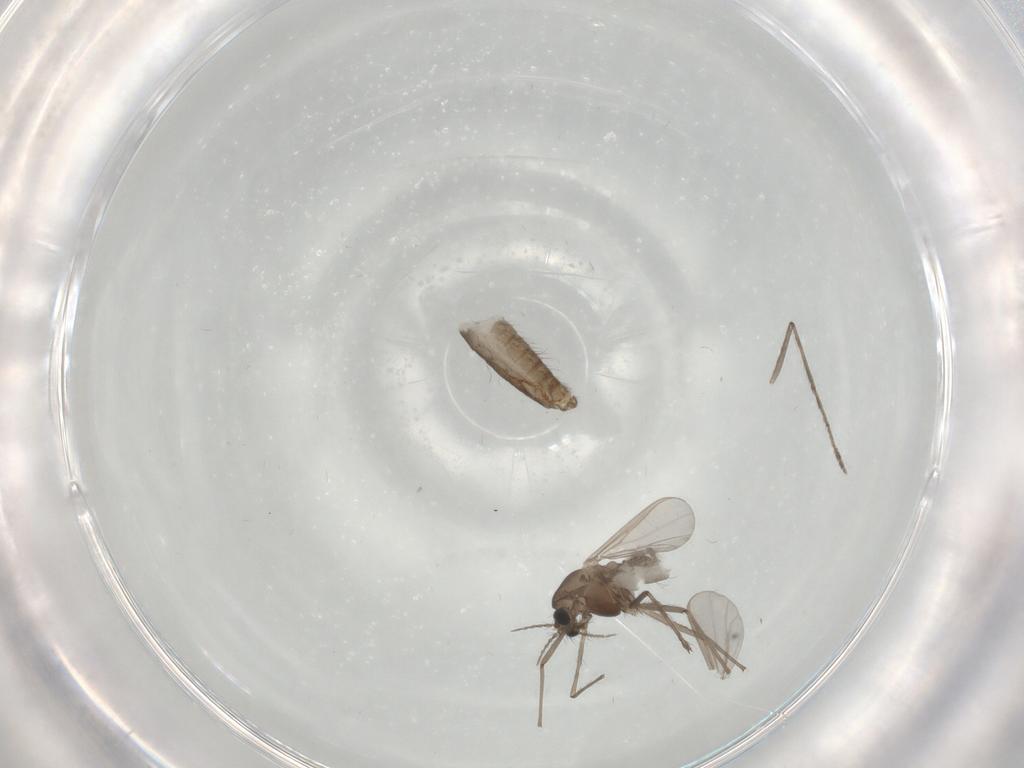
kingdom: Animalia
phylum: Arthropoda
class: Insecta
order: Diptera
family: Chironomidae
